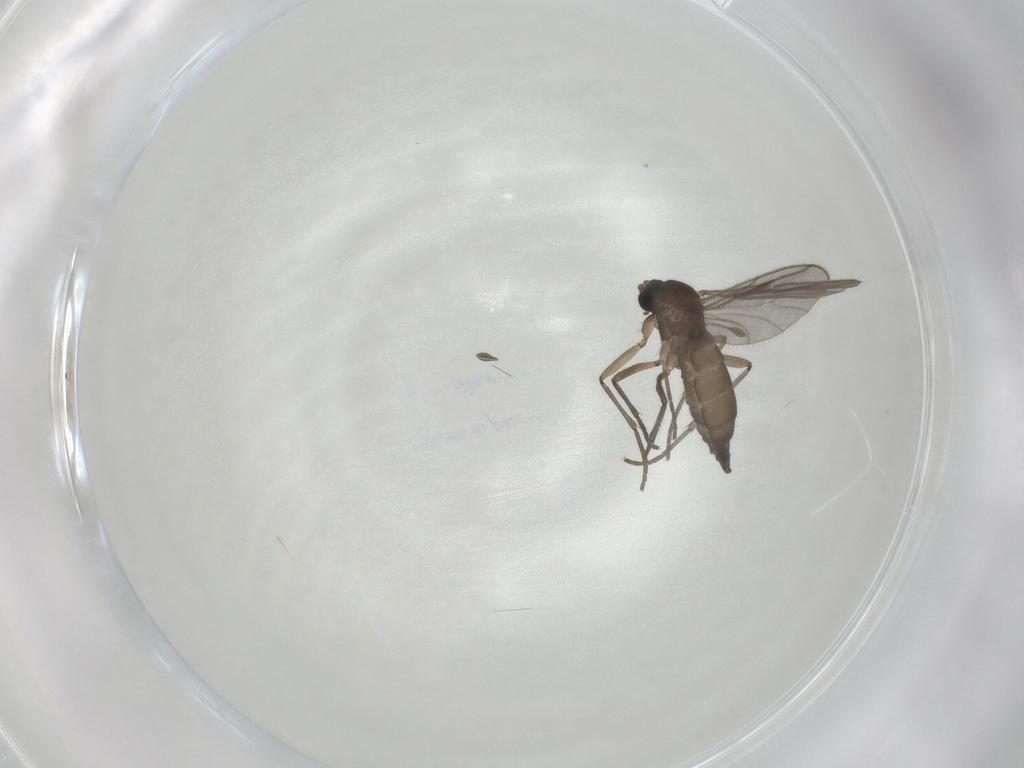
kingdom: Animalia
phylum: Arthropoda
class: Insecta
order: Diptera
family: Sciaridae
